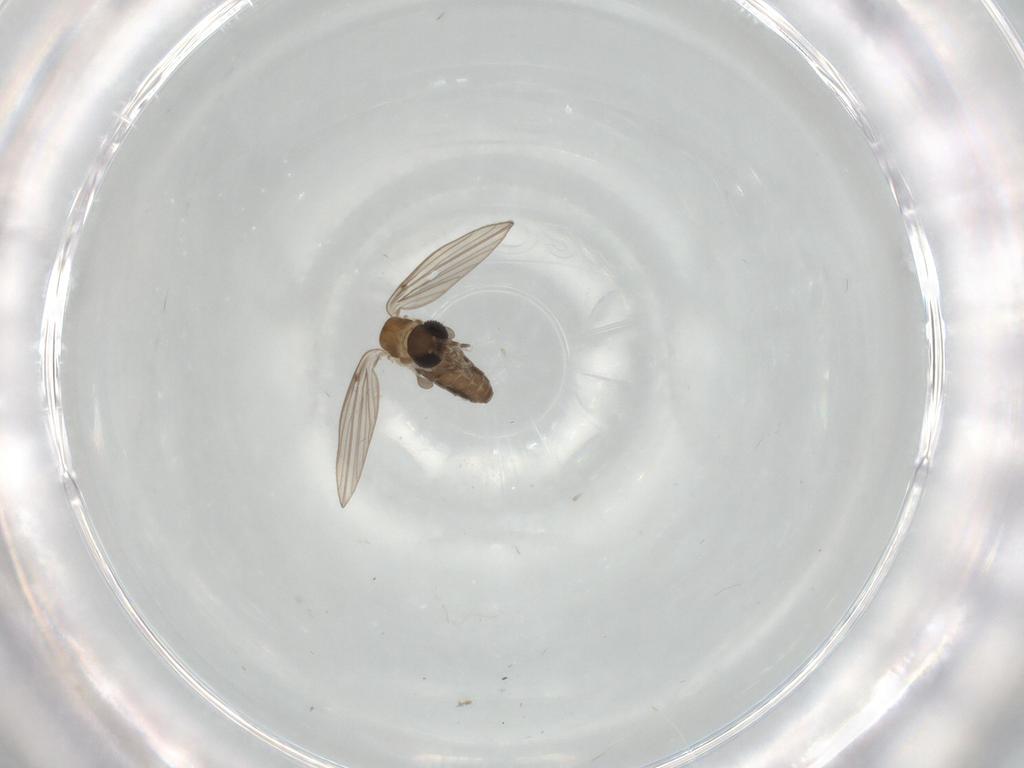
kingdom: Animalia
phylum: Arthropoda
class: Insecta
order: Diptera
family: Psychodidae
